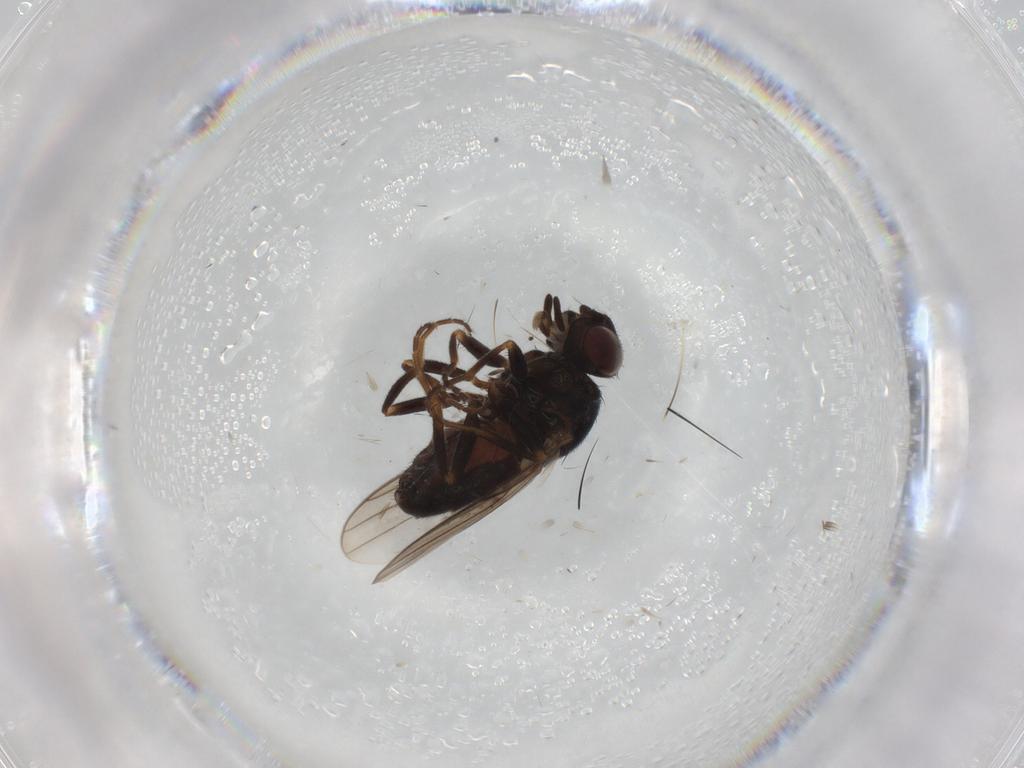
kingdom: Animalia
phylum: Arthropoda
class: Insecta
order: Diptera
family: Chloropidae
